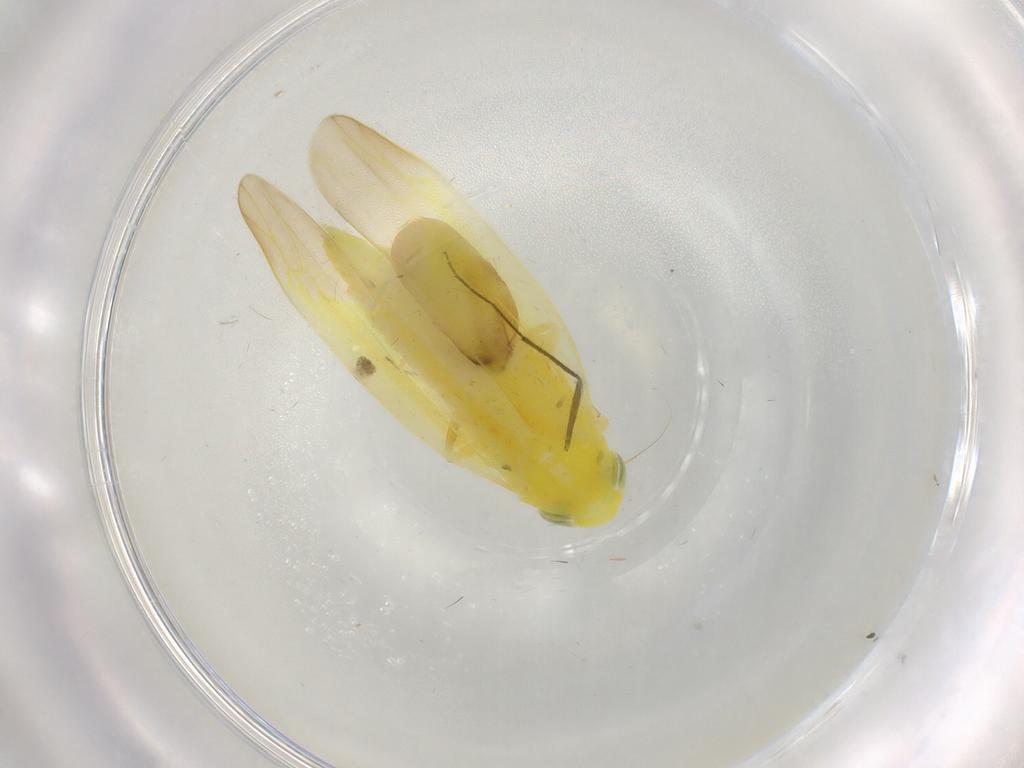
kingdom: Animalia
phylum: Arthropoda
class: Insecta
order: Hemiptera
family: Cicadellidae
